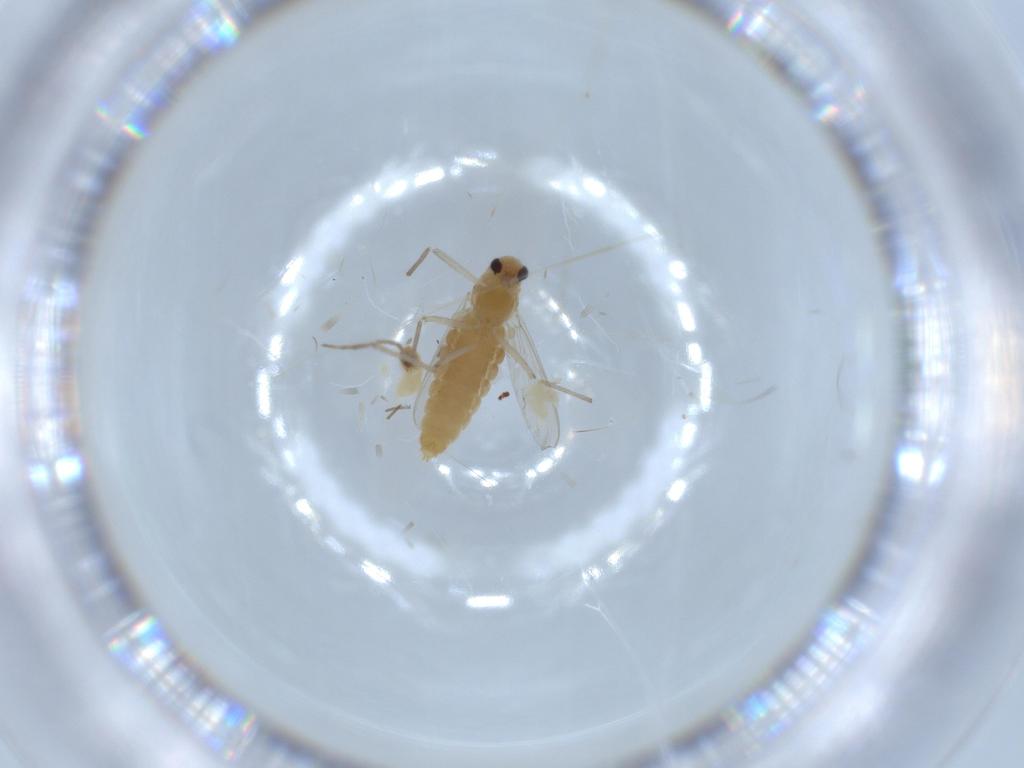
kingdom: Animalia
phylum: Arthropoda
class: Insecta
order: Diptera
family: Chironomidae
